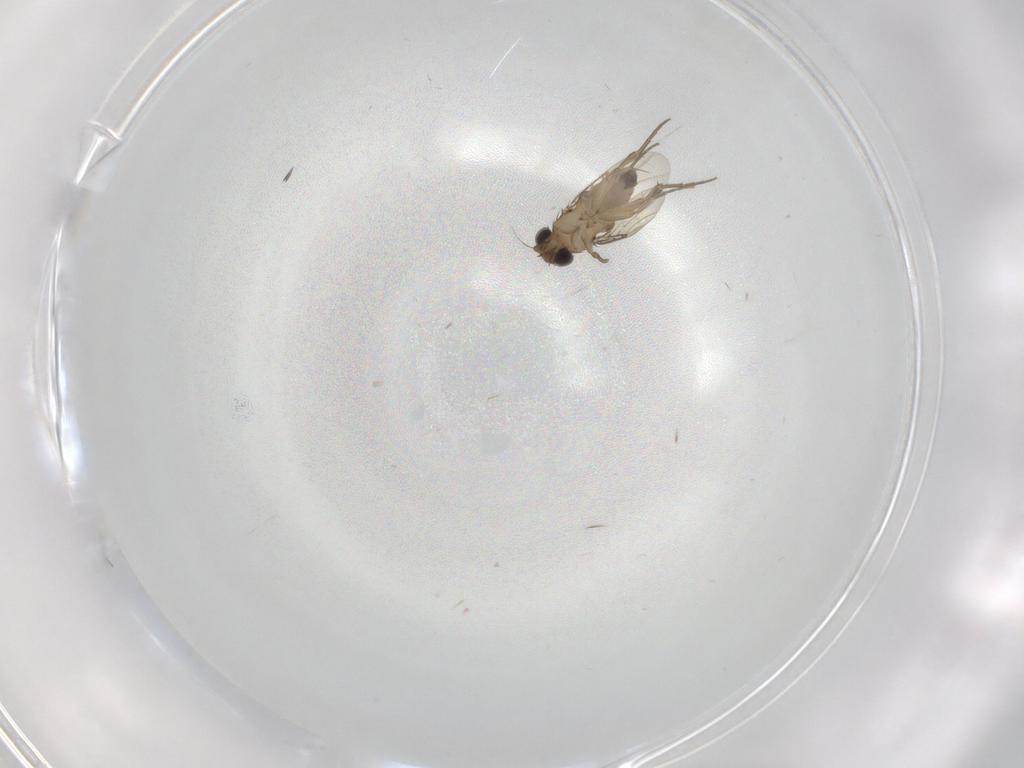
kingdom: Animalia
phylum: Arthropoda
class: Insecta
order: Diptera
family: Phoridae
